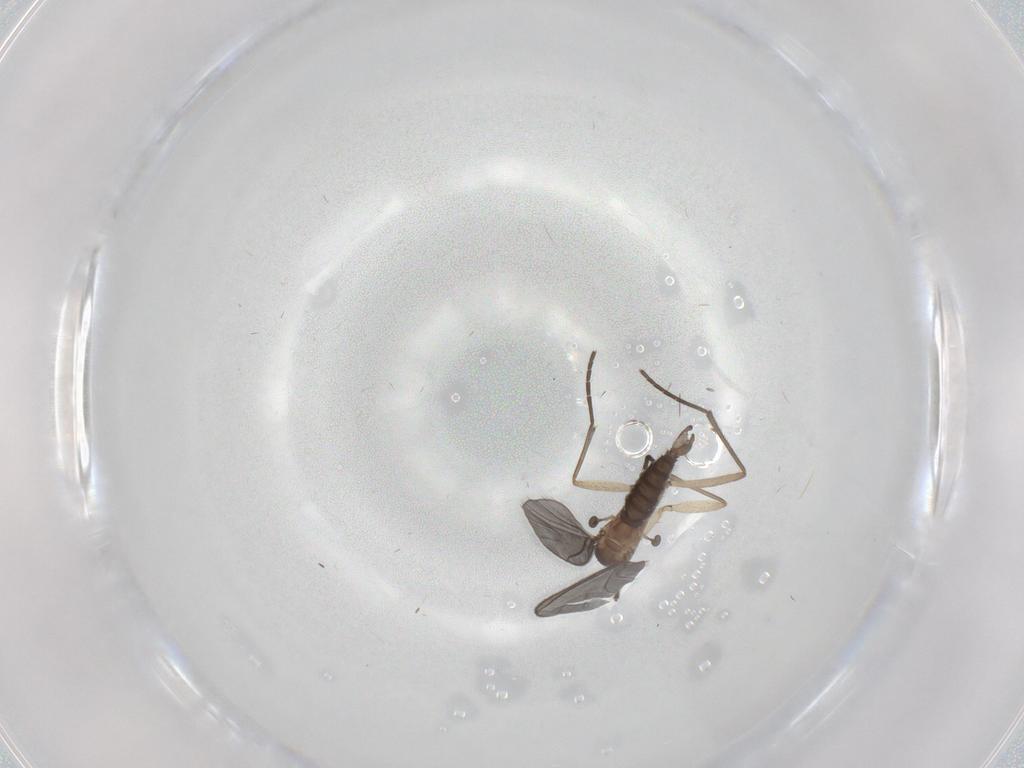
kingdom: Animalia
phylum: Arthropoda
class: Insecta
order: Diptera
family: Sciaridae
